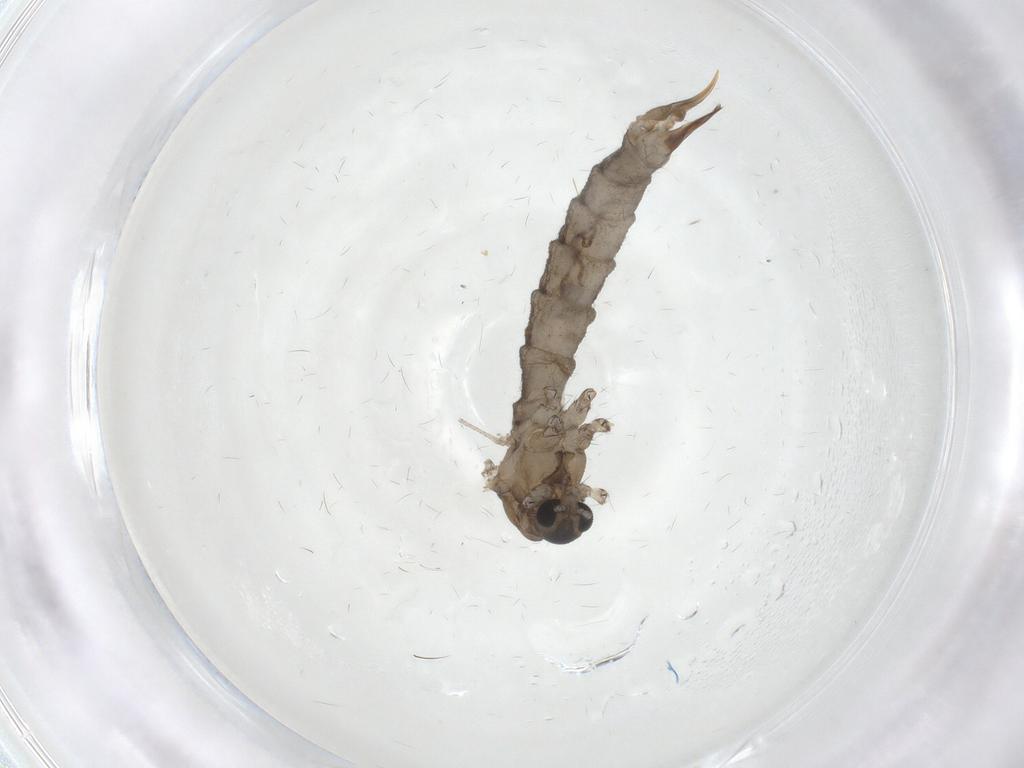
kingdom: Animalia
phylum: Arthropoda
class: Insecta
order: Diptera
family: Limoniidae
